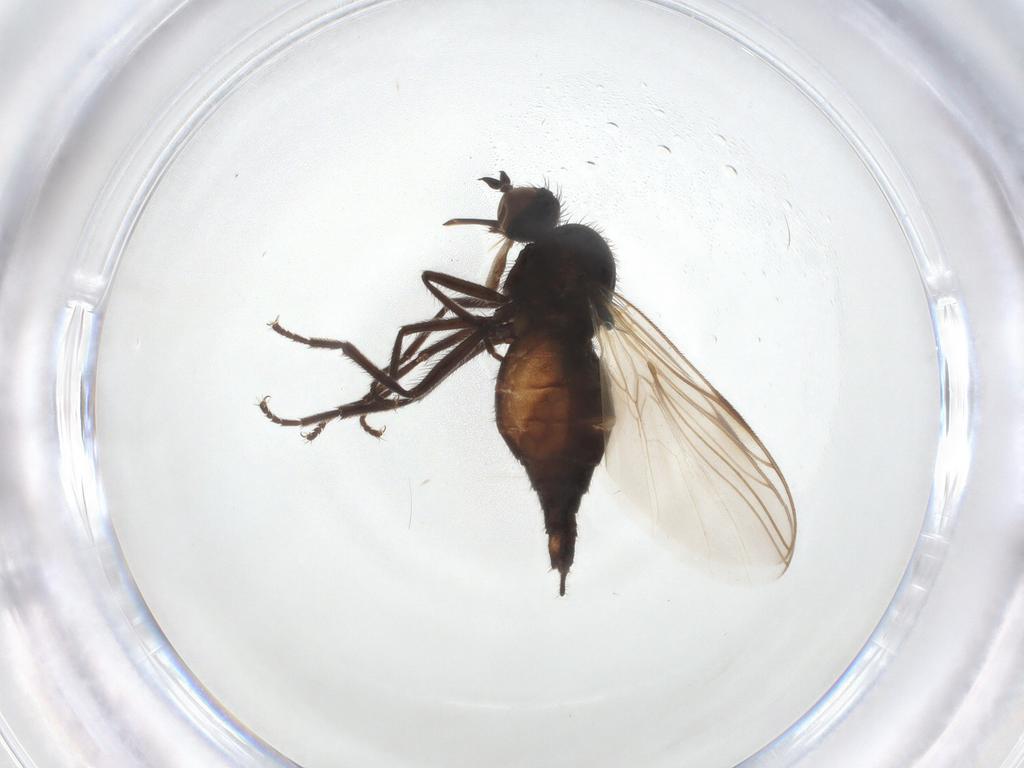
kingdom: Animalia
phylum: Arthropoda
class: Insecta
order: Diptera
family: Sciaridae
